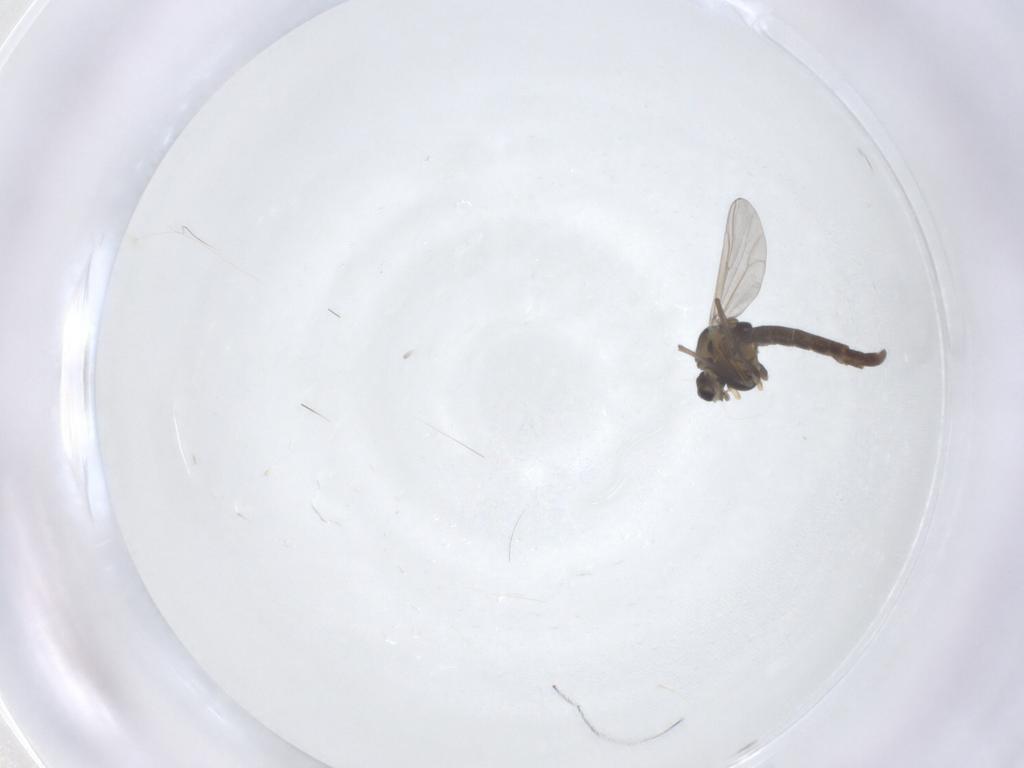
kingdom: Animalia
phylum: Arthropoda
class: Insecta
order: Diptera
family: Chironomidae
